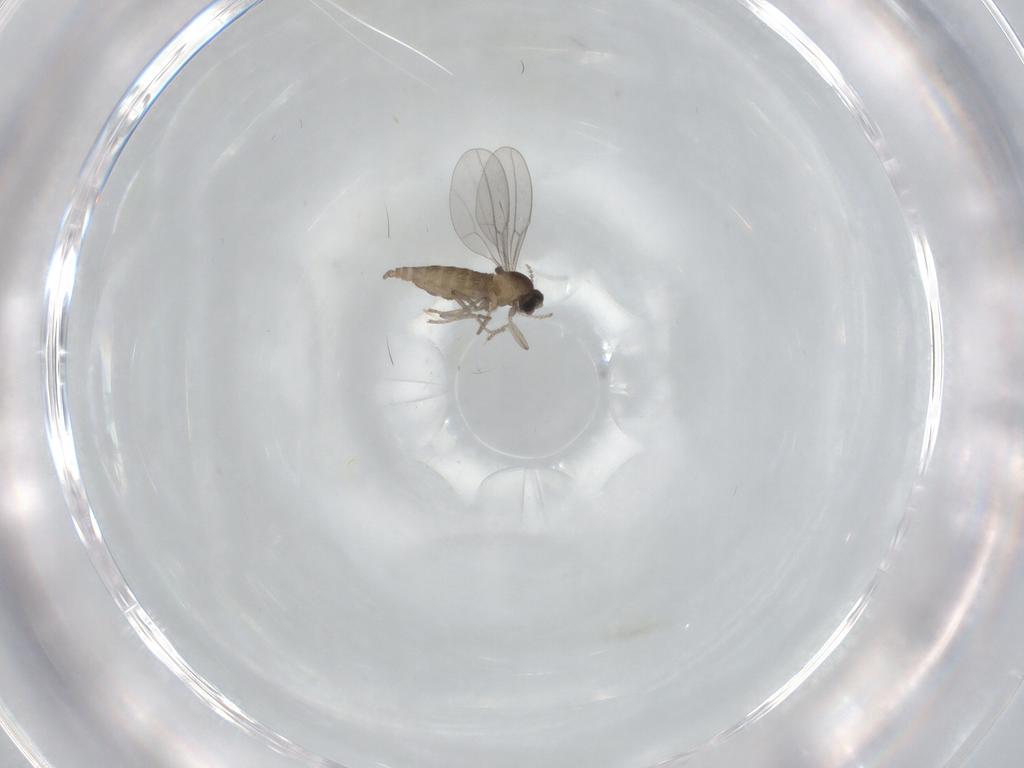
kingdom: Animalia
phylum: Arthropoda
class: Insecta
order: Diptera
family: Cecidomyiidae
